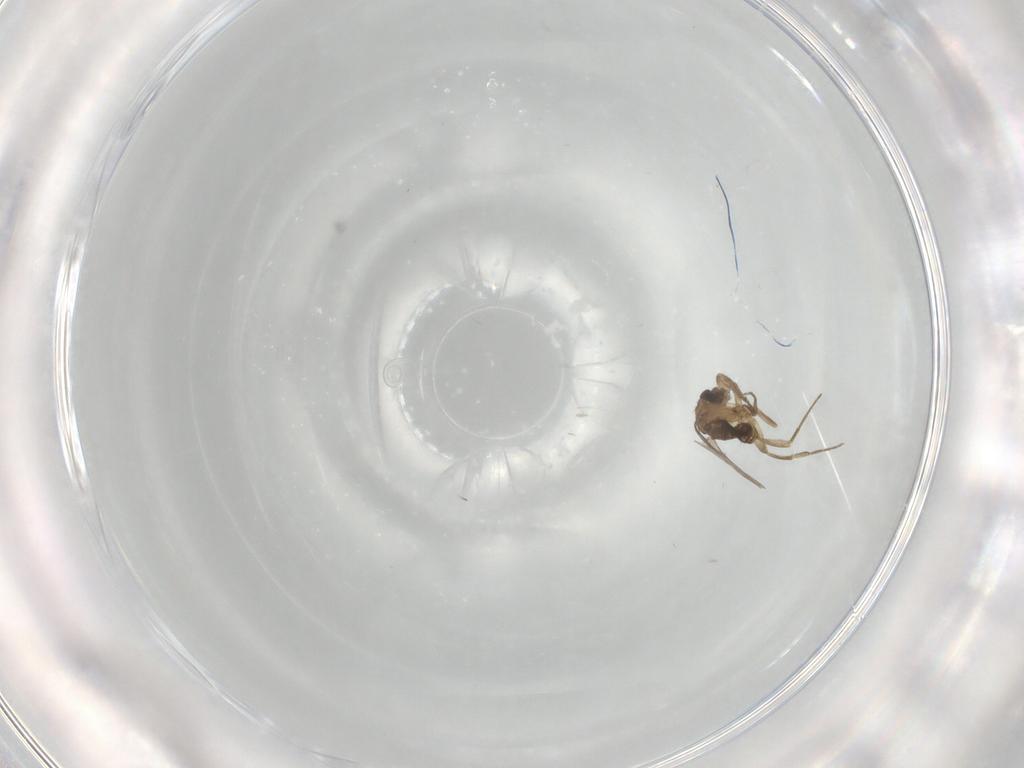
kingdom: Animalia
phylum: Arthropoda
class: Insecta
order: Diptera
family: Phoridae
